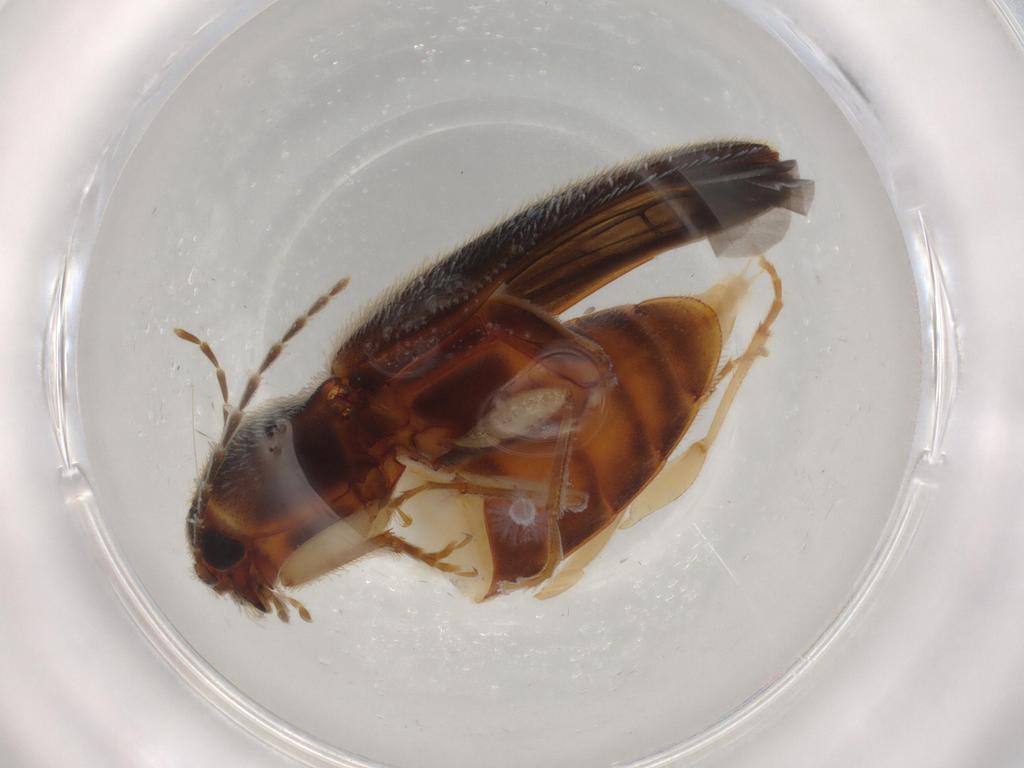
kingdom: Animalia
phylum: Arthropoda
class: Insecta
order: Coleoptera
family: Elateridae
